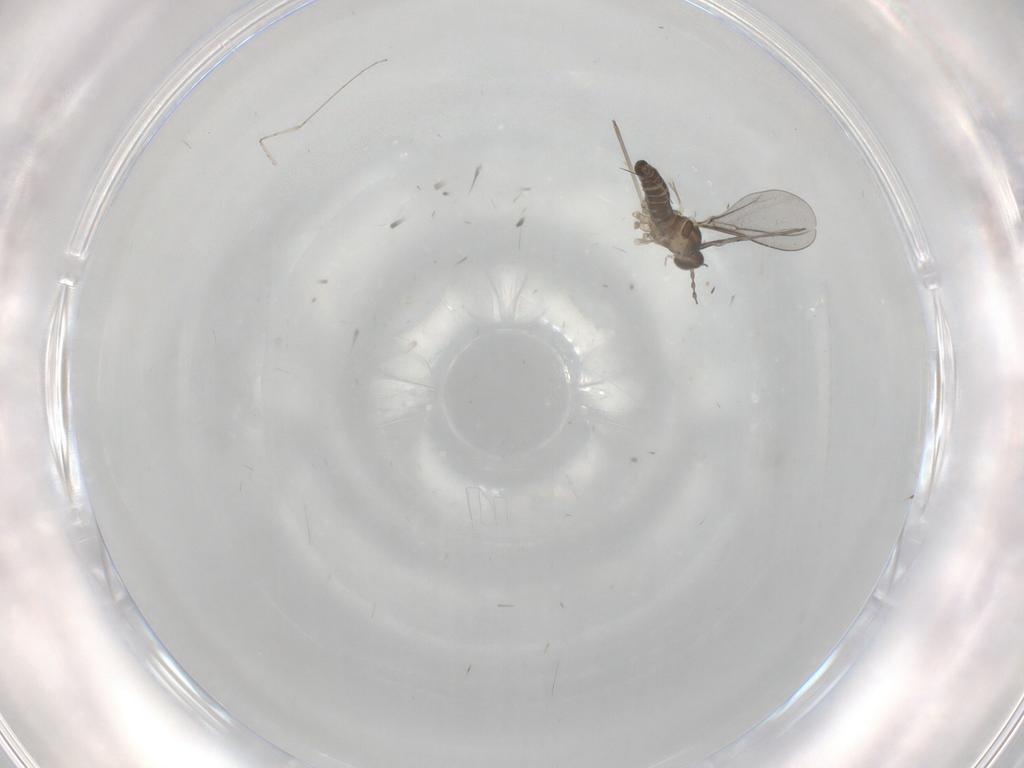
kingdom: Animalia
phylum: Arthropoda
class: Insecta
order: Diptera
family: Cecidomyiidae
